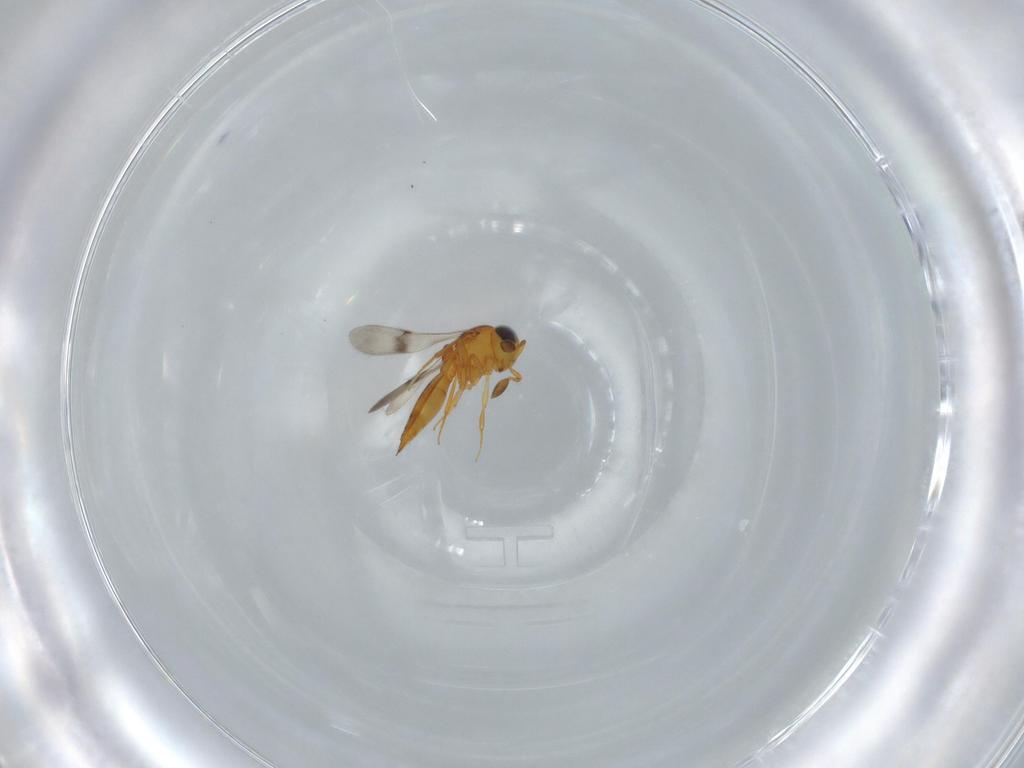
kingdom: Animalia
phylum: Arthropoda
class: Insecta
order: Hymenoptera
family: Scelionidae
